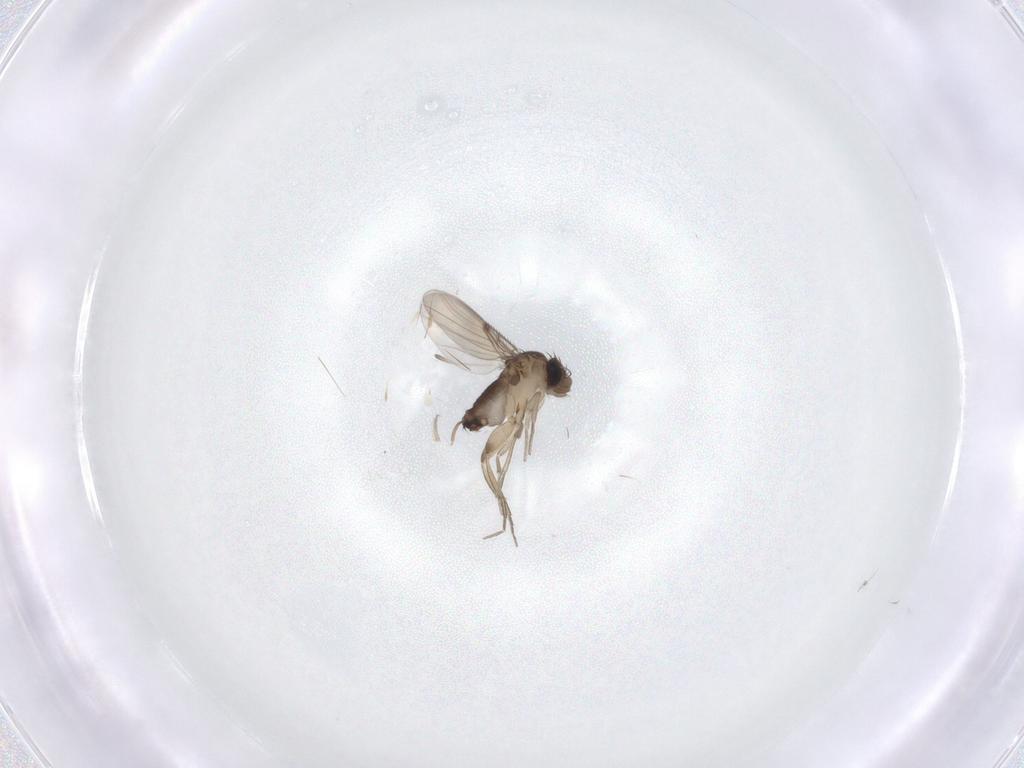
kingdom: Animalia
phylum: Arthropoda
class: Insecta
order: Diptera
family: Phoridae
